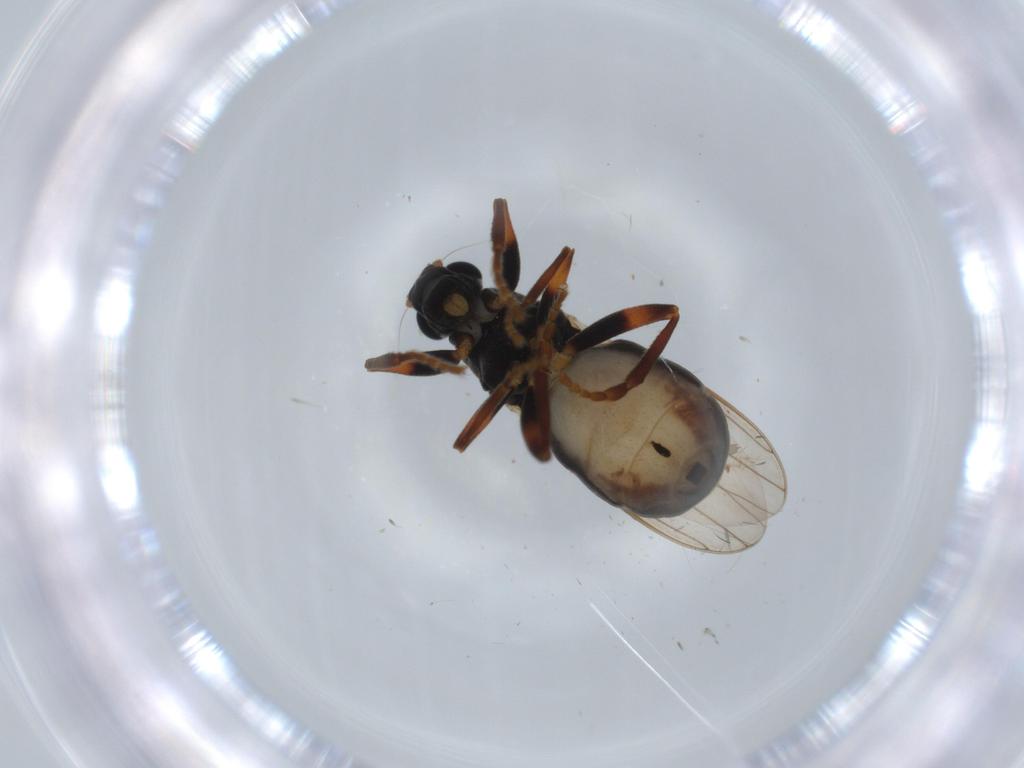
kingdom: Animalia
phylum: Arthropoda
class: Insecta
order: Diptera
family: Sphaeroceridae
